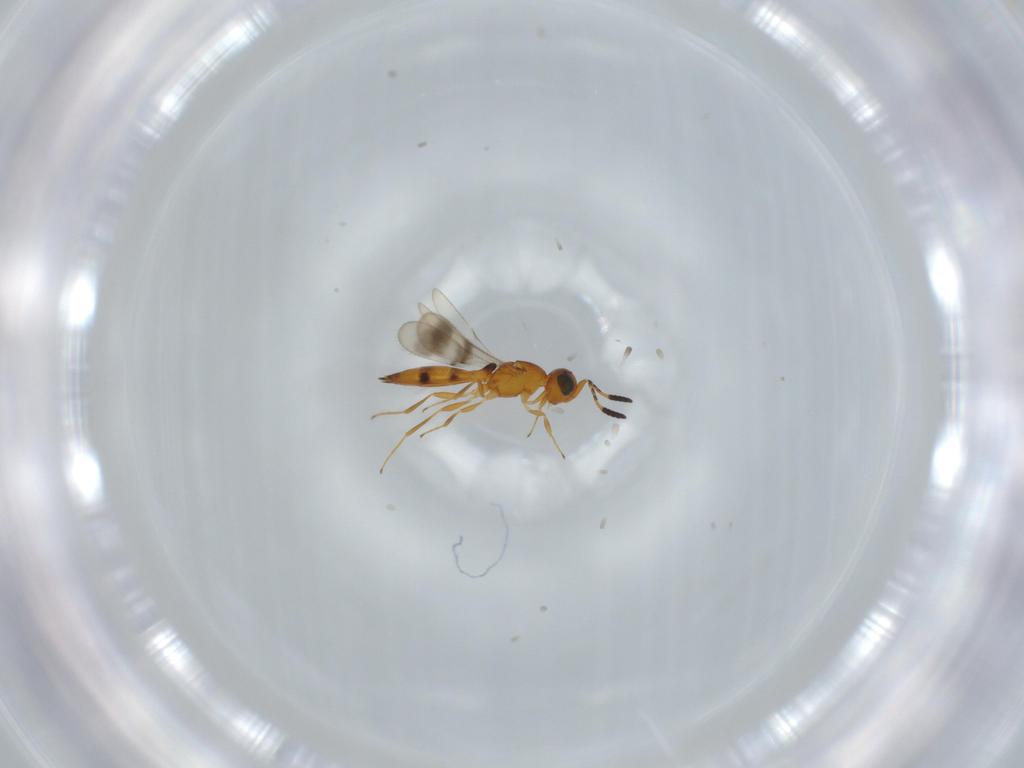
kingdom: Animalia
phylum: Arthropoda
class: Insecta
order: Hymenoptera
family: Scelionidae
